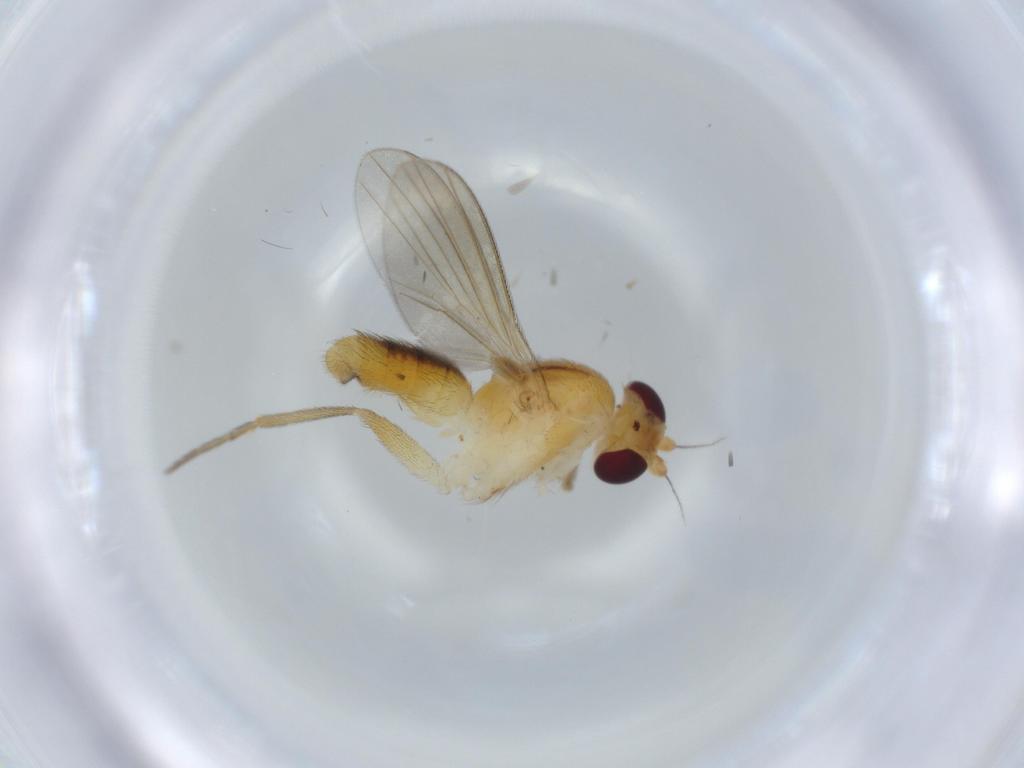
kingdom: Animalia
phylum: Arthropoda
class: Insecta
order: Diptera
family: Clusiidae
